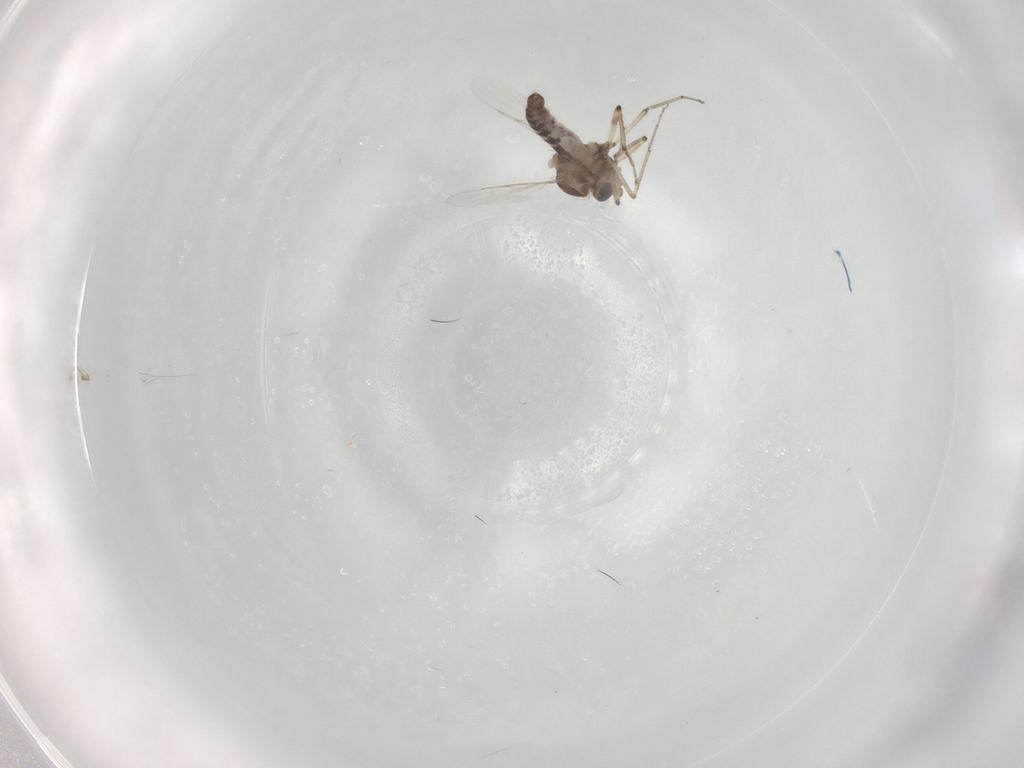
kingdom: Animalia
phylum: Arthropoda
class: Insecta
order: Diptera
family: Ceratopogonidae
